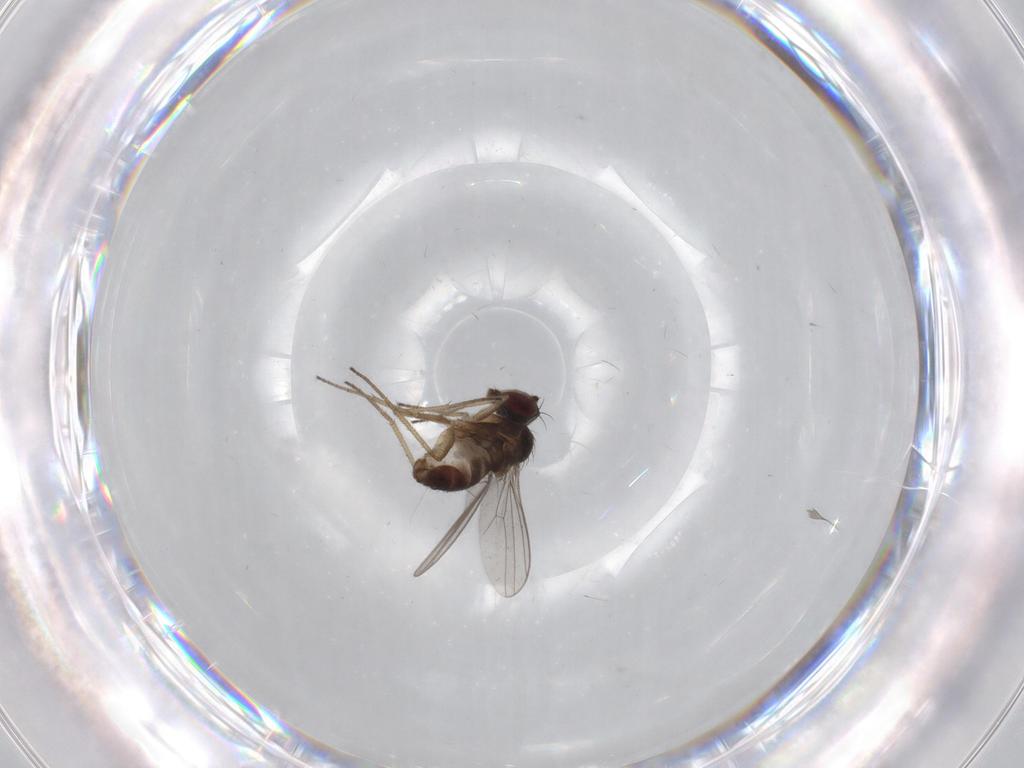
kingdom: Animalia
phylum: Arthropoda
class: Insecta
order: Diptera
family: Dolichopodidae
